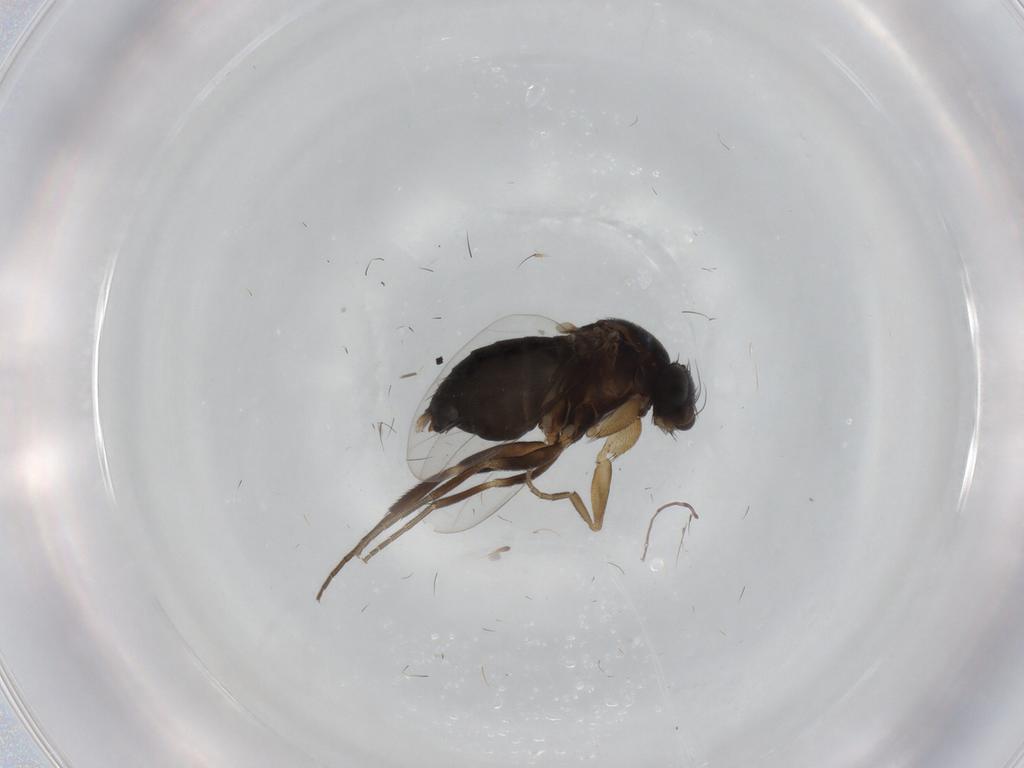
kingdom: Animalia
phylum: Arthropoda
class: Insecta
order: Diptera
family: Phoridae
